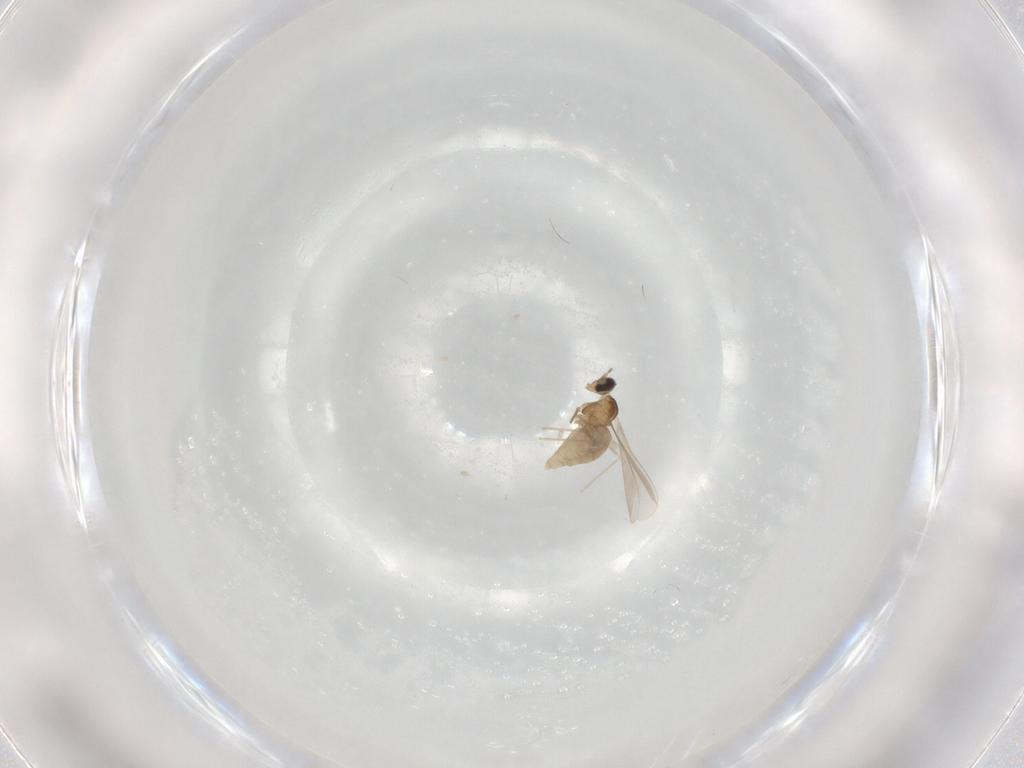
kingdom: Animalia
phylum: Arthropoda
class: Insecta
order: Diptera
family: Cecidomyiidae
